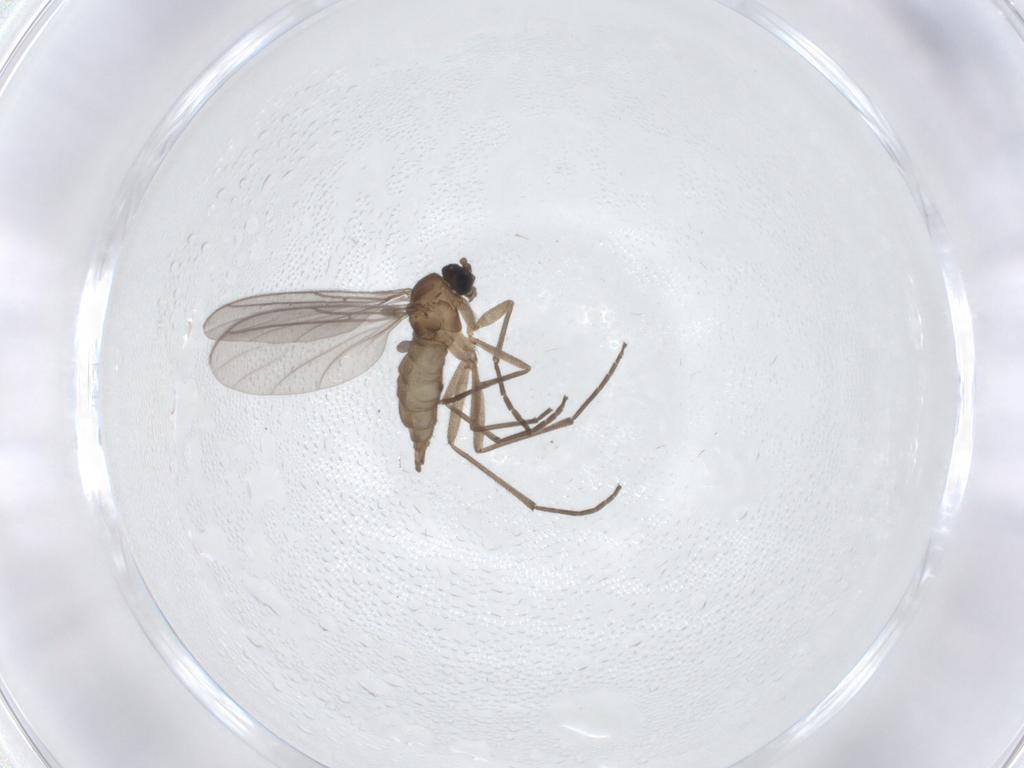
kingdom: Animalia
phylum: Arthropoda
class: Insecta
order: Diptera
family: Sciaridae
